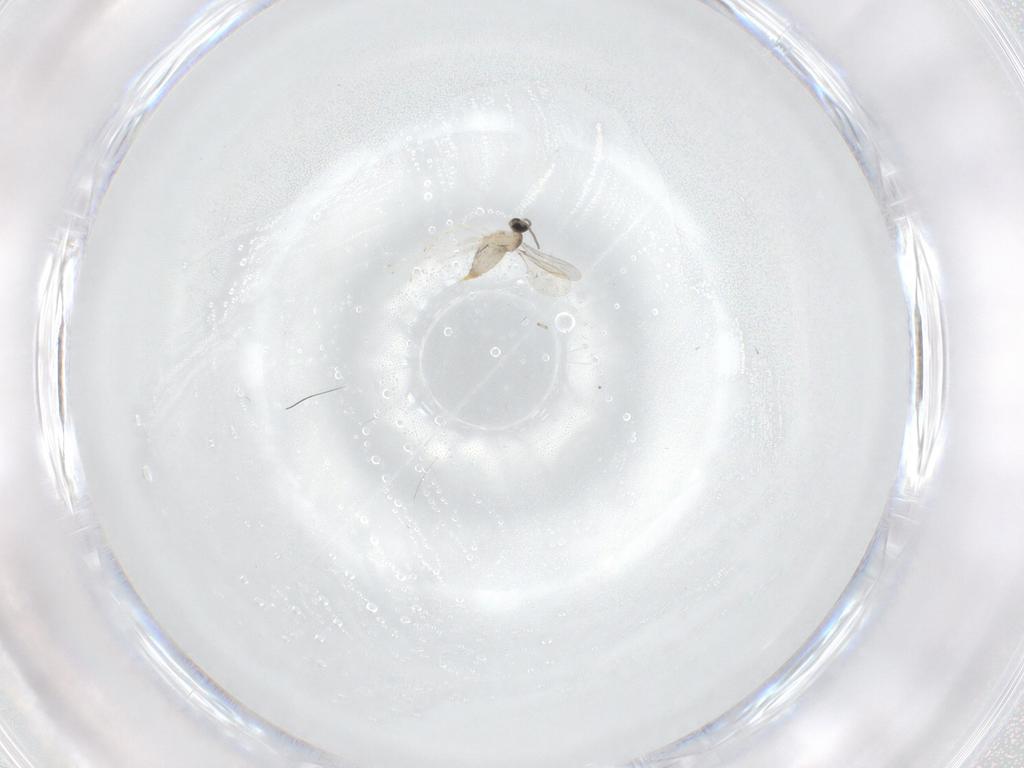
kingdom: Animalia
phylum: Arthropoda
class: Insecta
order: Diptera
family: Cecidomyiidae
